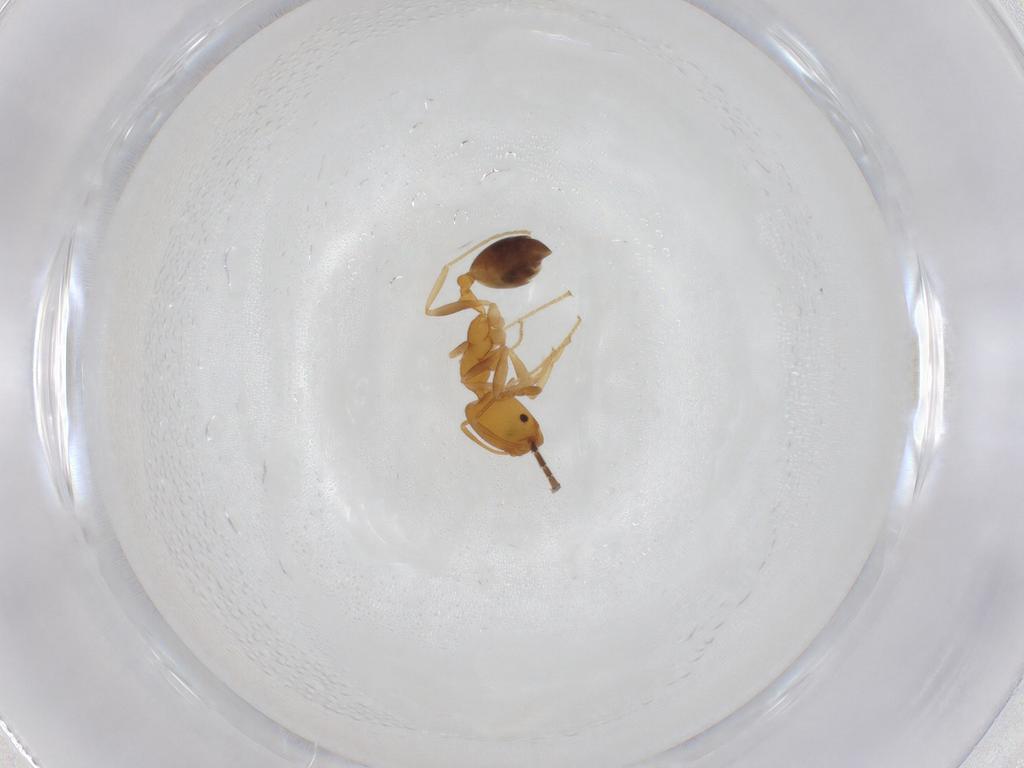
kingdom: Animalia
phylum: Arthropoda
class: Insecta
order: Hymenoptera
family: Formicidae
